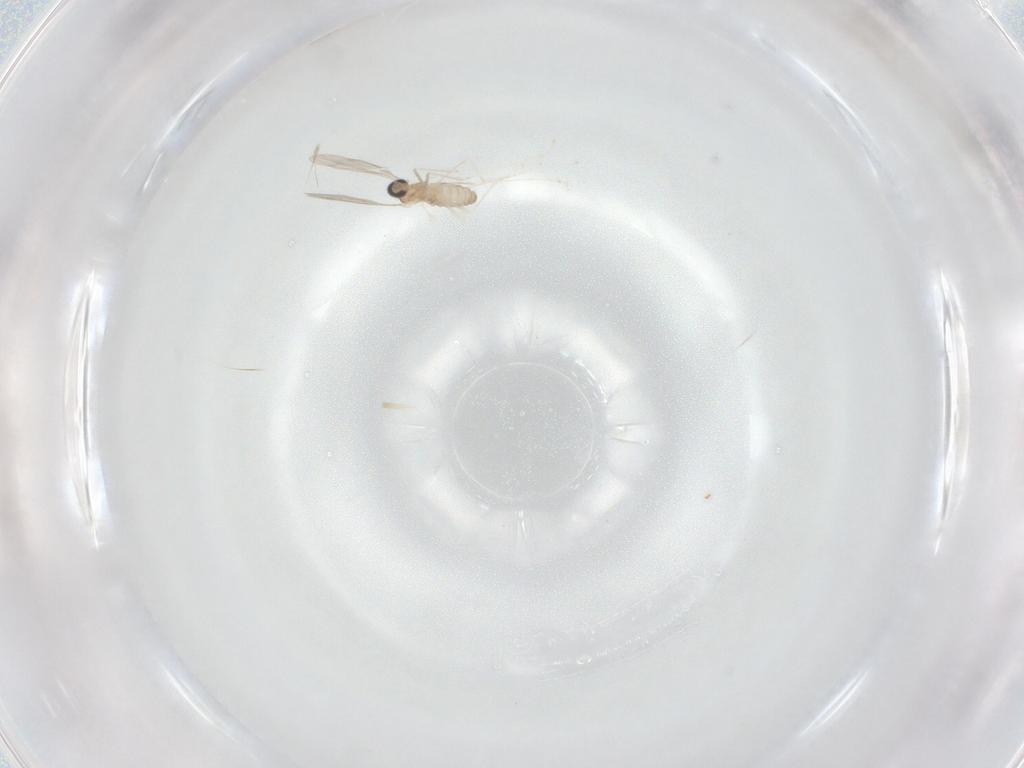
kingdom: Animalia
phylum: Arthropoda
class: Insecta
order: Diptera
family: Cecidomyiidae
